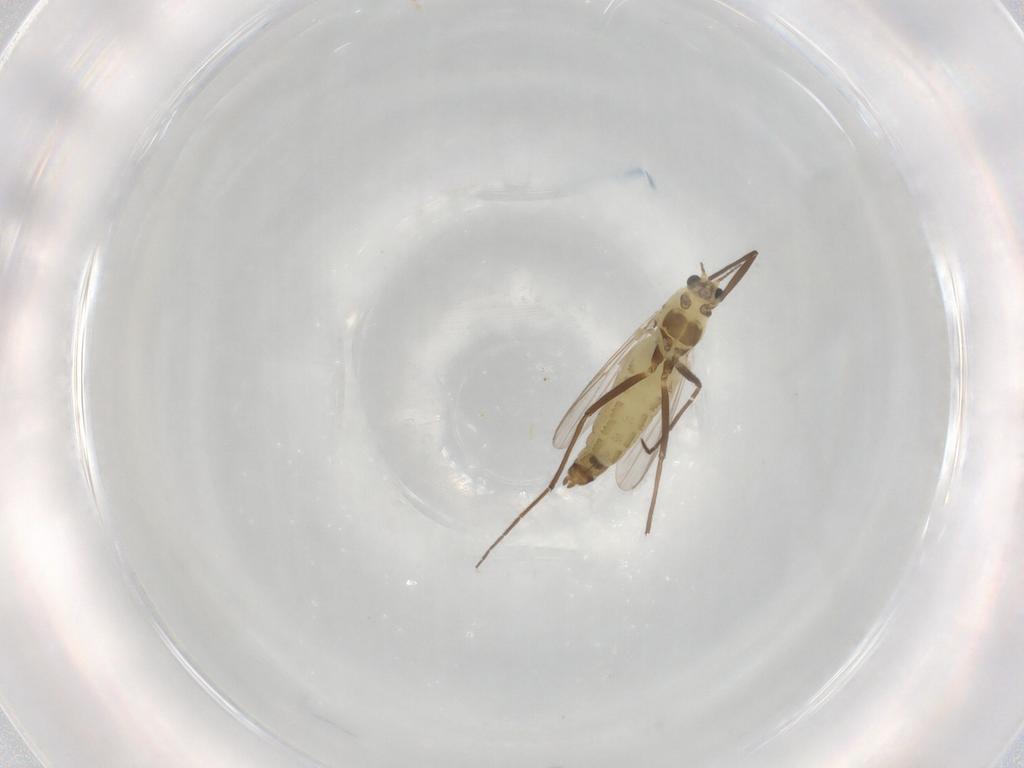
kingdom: Animalia
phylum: Arthropoda
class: Insecta
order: Diptera
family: Chironomidae
